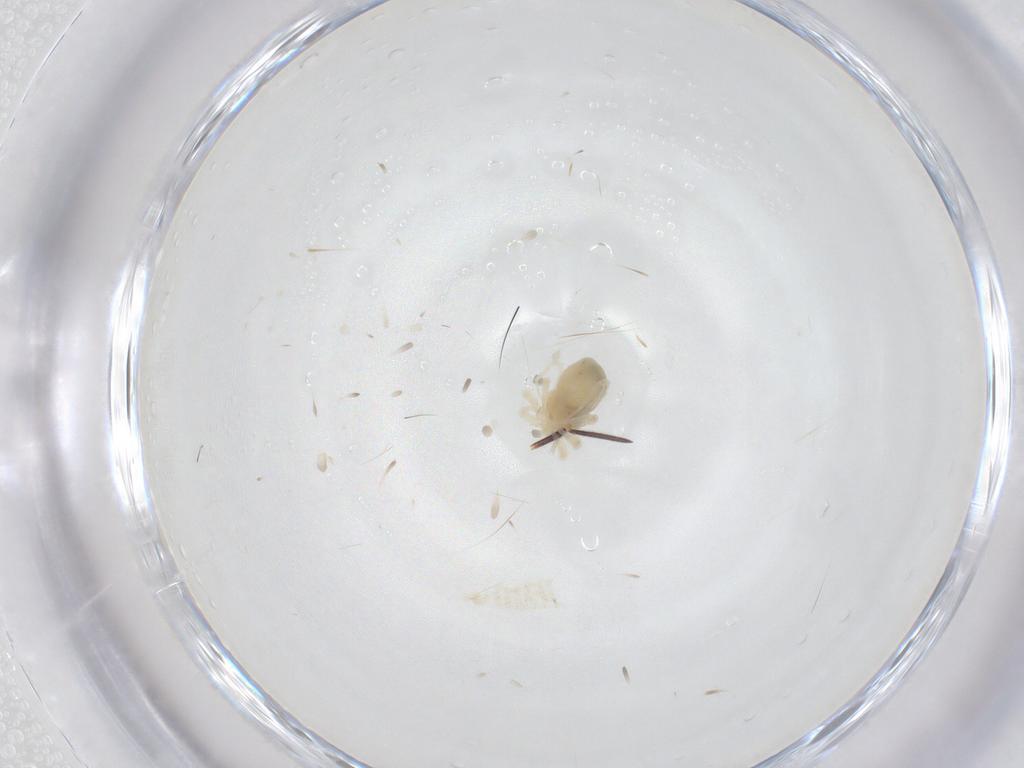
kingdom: Animalia
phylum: Arthropoda
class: Arachnida
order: Trombidiformes
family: Anystidae
